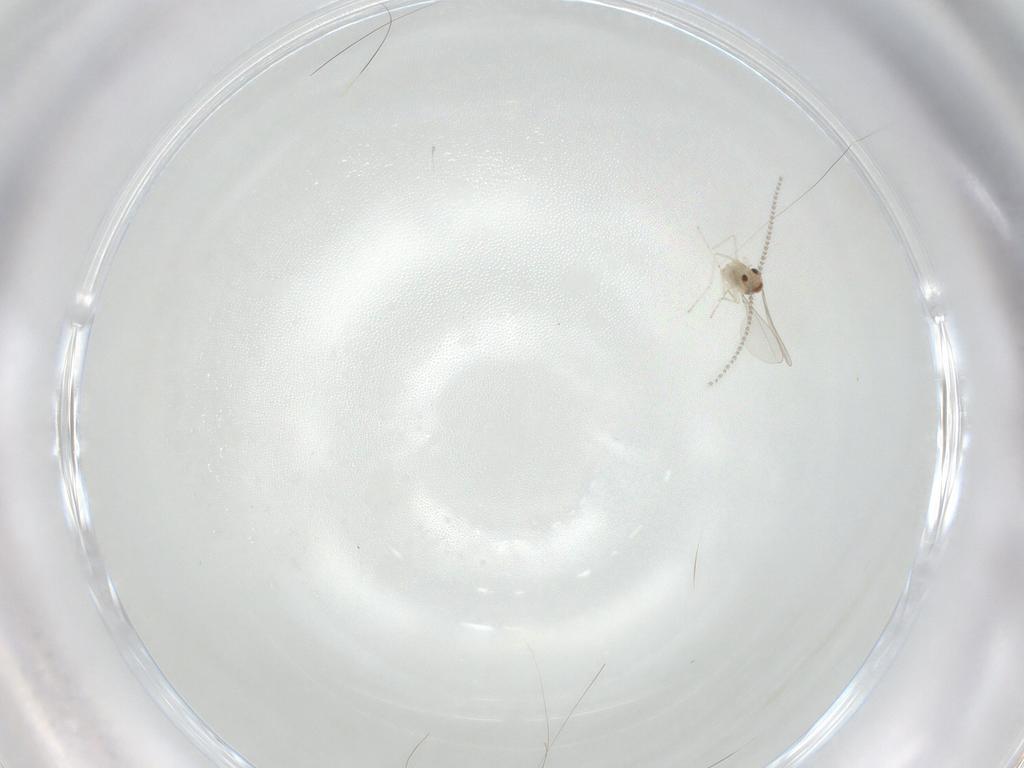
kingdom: Animalia
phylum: Arthropoda
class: Insecta
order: Diptera
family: Cecidomyiidae
